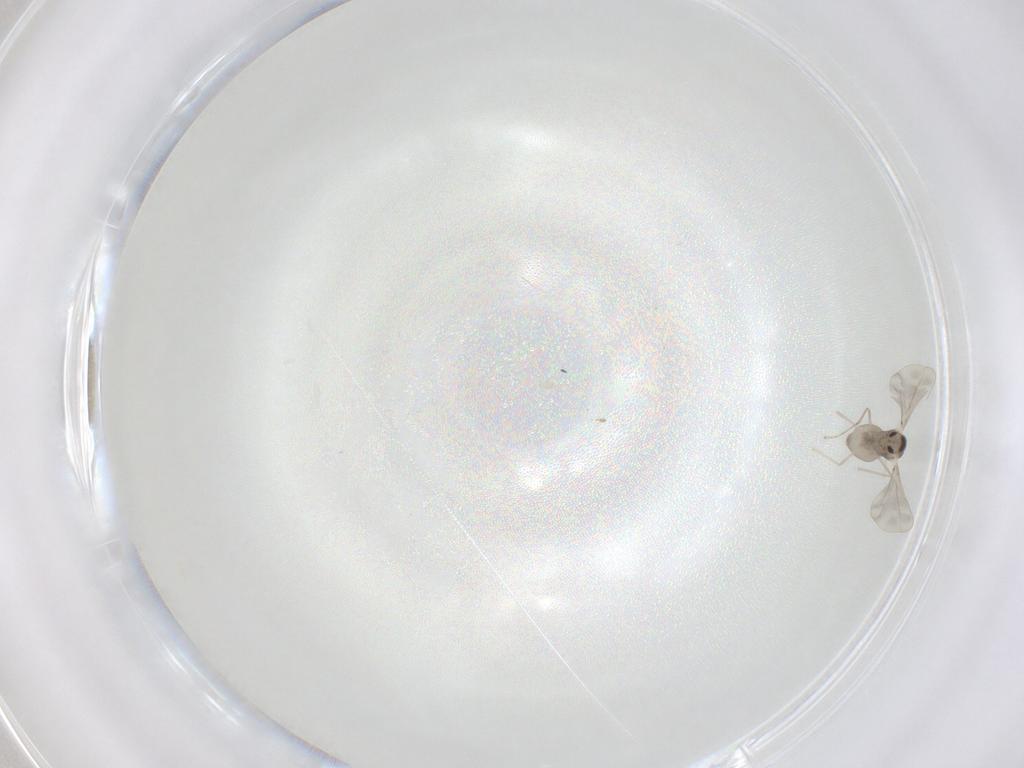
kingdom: Animalia
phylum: Arthropoda
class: Insecta
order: Diptera
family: Cecidomyiidae
